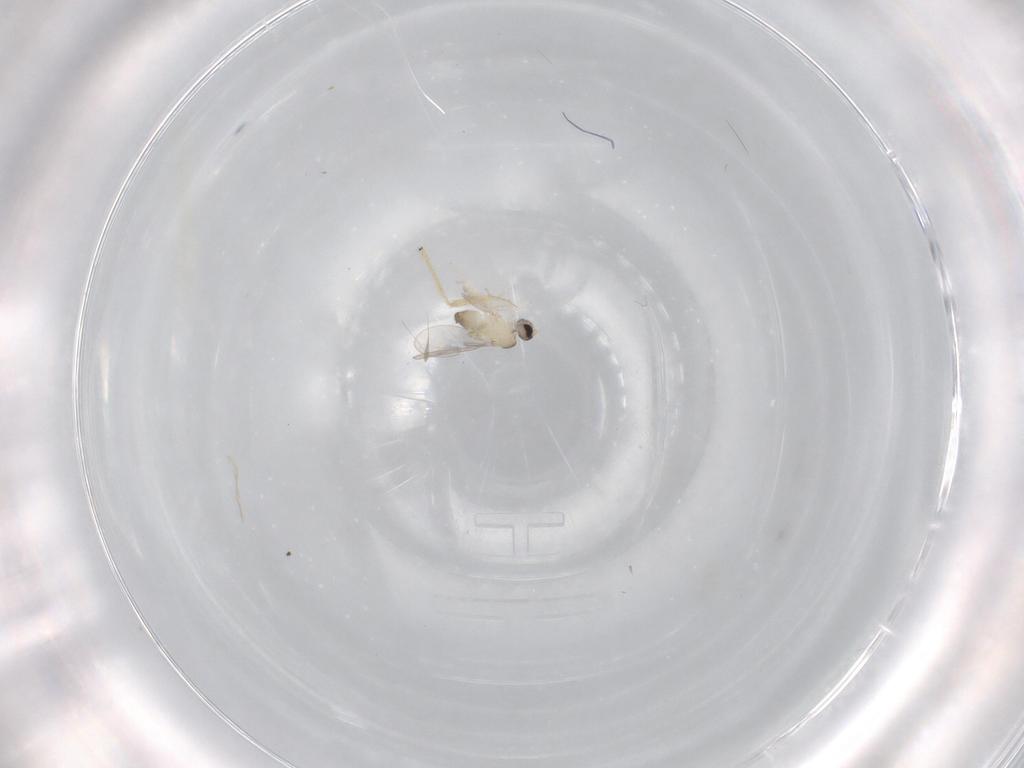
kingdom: Animalia
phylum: Arthropoda
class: Insecta
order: Diptera
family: Cecidomyiidae
